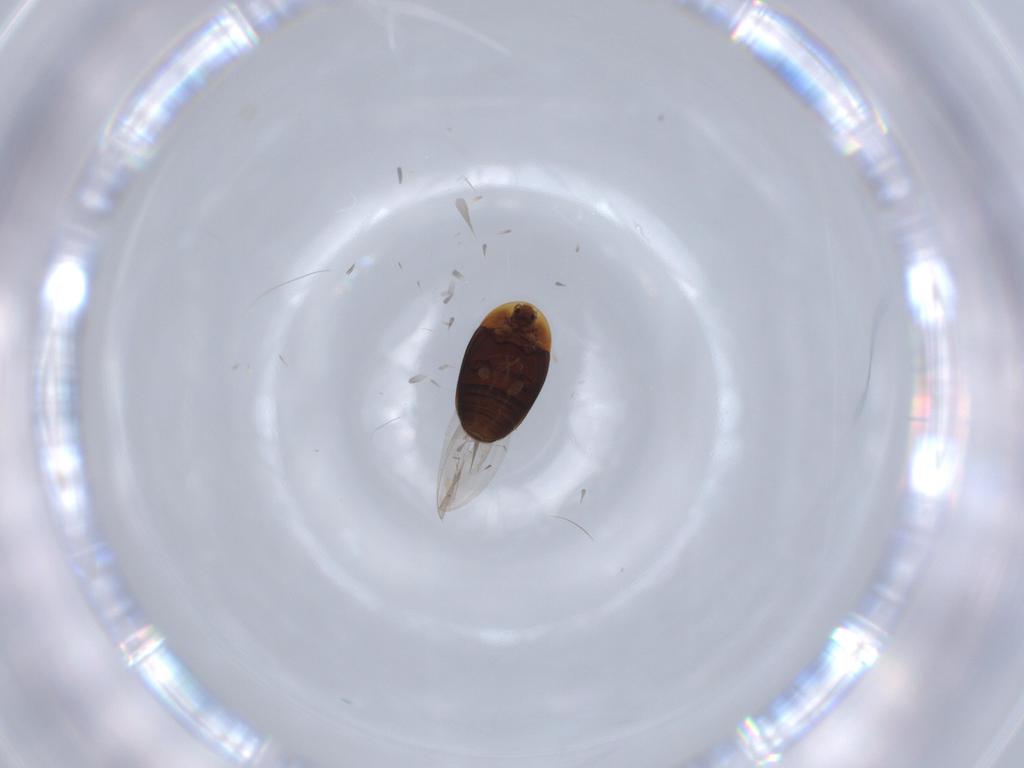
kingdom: Animalia
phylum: Arthropoda
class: Insecta
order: Coleoptera
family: Corylophidae
